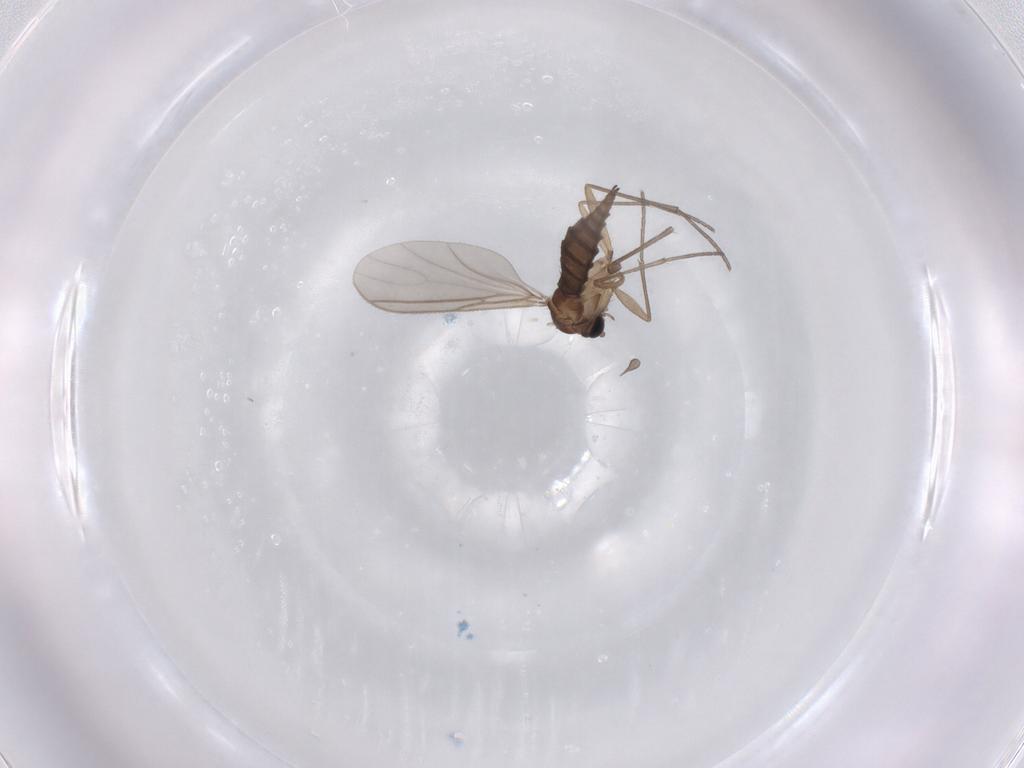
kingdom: Animalia
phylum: Arthropoda
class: Insecta
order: Diptera
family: Sciaridae
